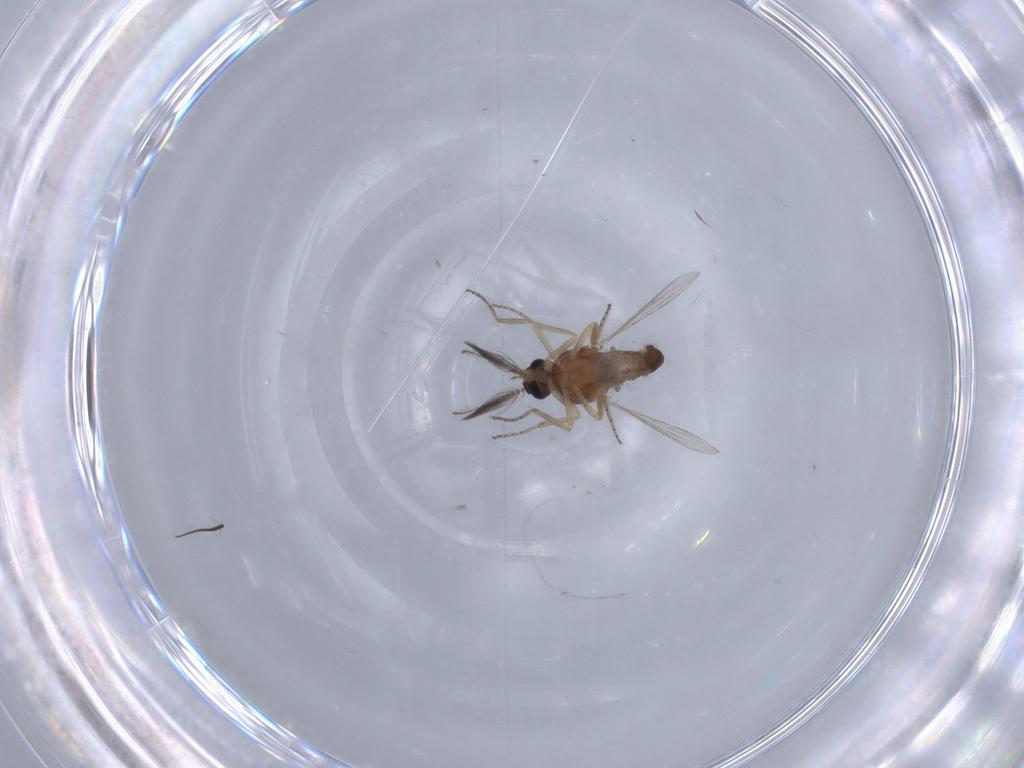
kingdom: Animalia
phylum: Arthropoda
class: Insecta
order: Diptera
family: Ceratopogonidae
